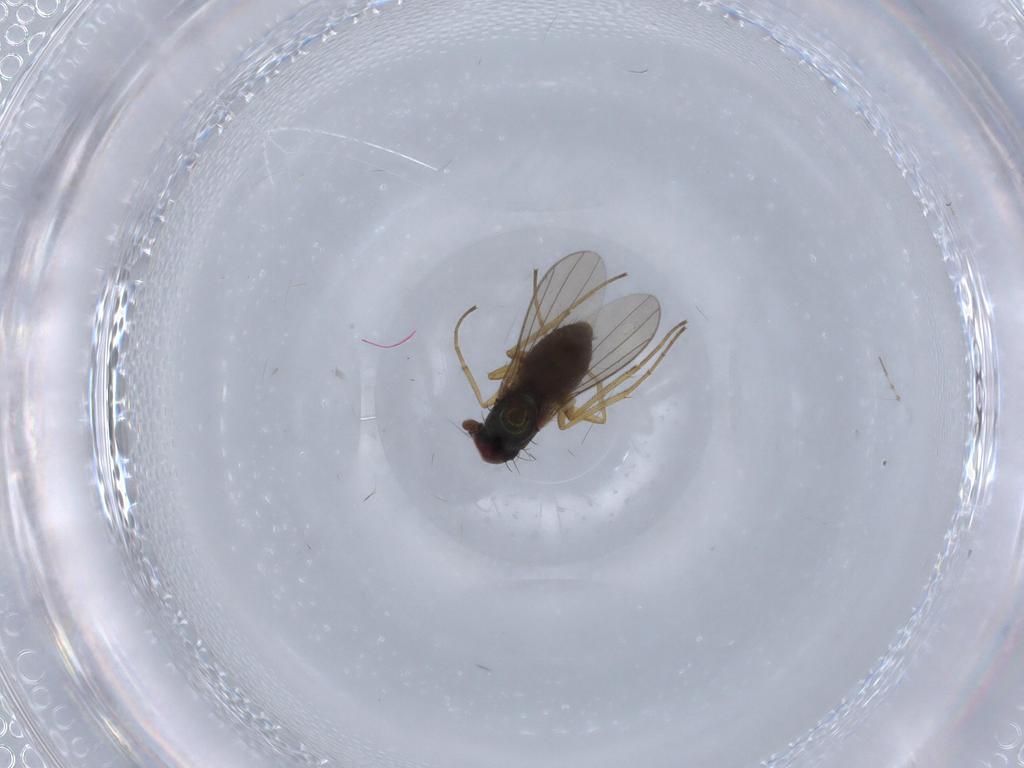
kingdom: Animalia
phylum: Arthropoda
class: Insecta
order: Diptera
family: Dolichopodidae
